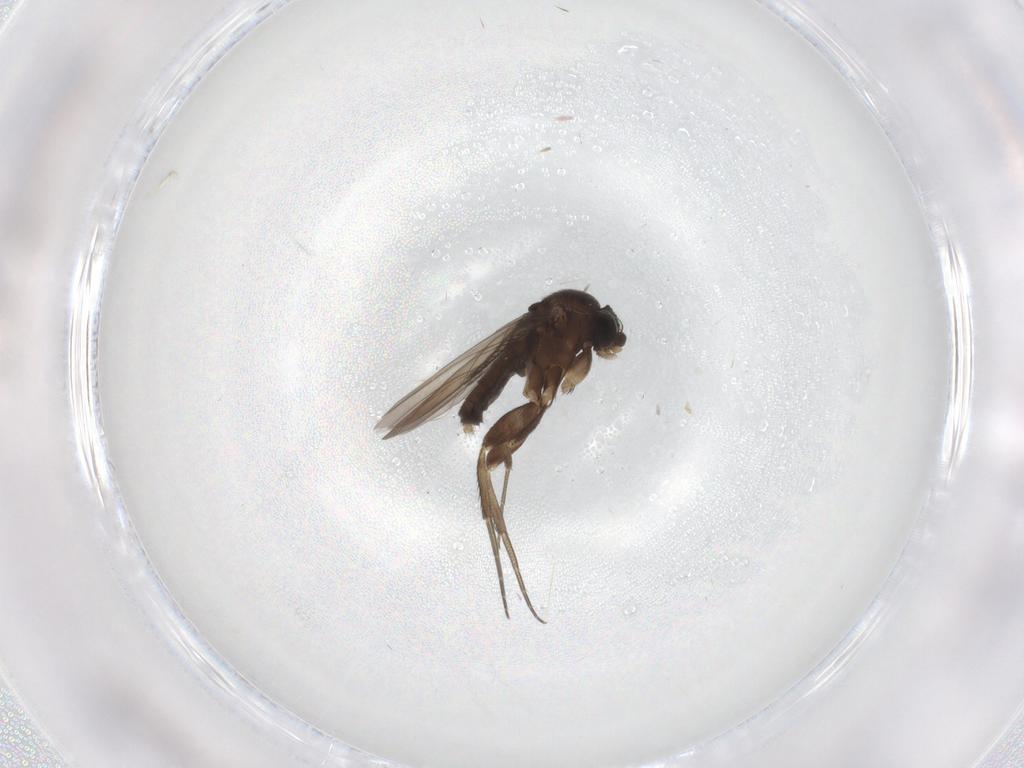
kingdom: Animalia
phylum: Arthropoda
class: Insecta
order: Diptera
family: Phoridae
